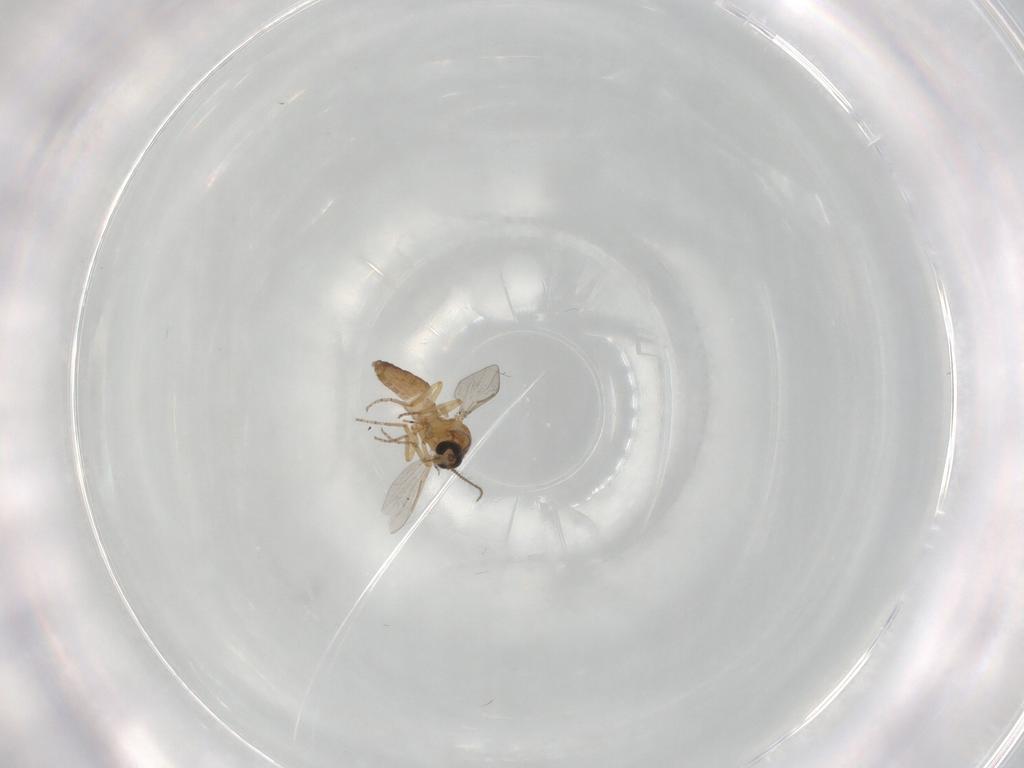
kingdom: Animalia
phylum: Arthropoda
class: Insecta
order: Diptera
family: Ceratopogonidae
